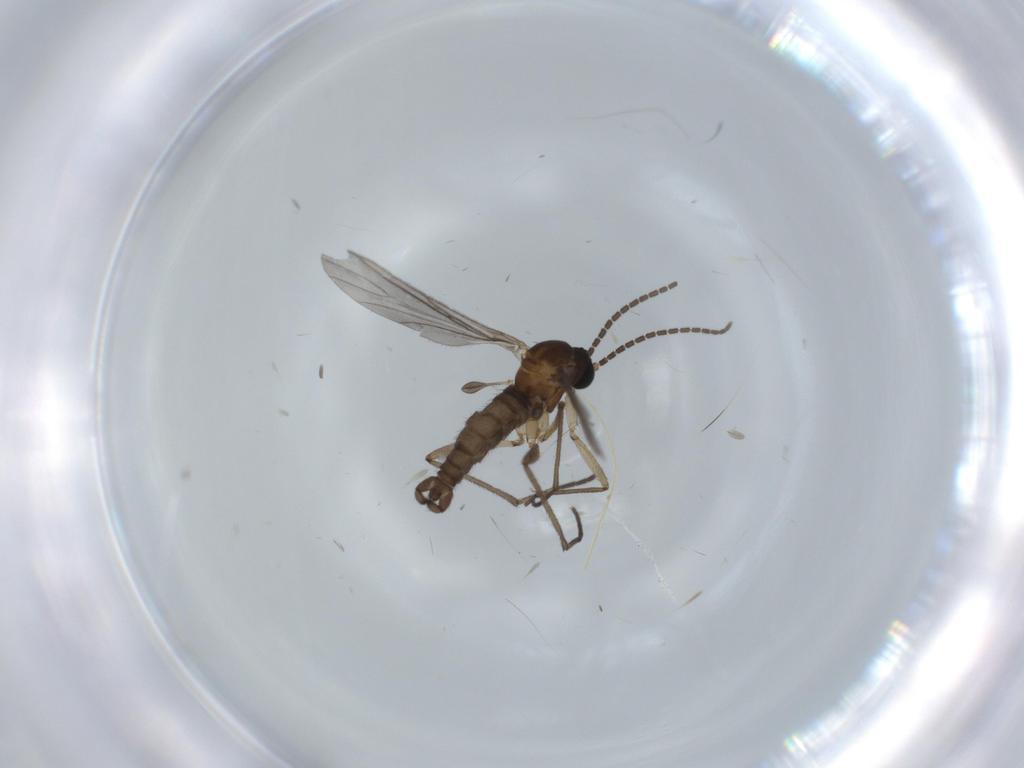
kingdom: Animalia
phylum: Arthropoda
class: Insecta
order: Diptera
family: Sciaridae
